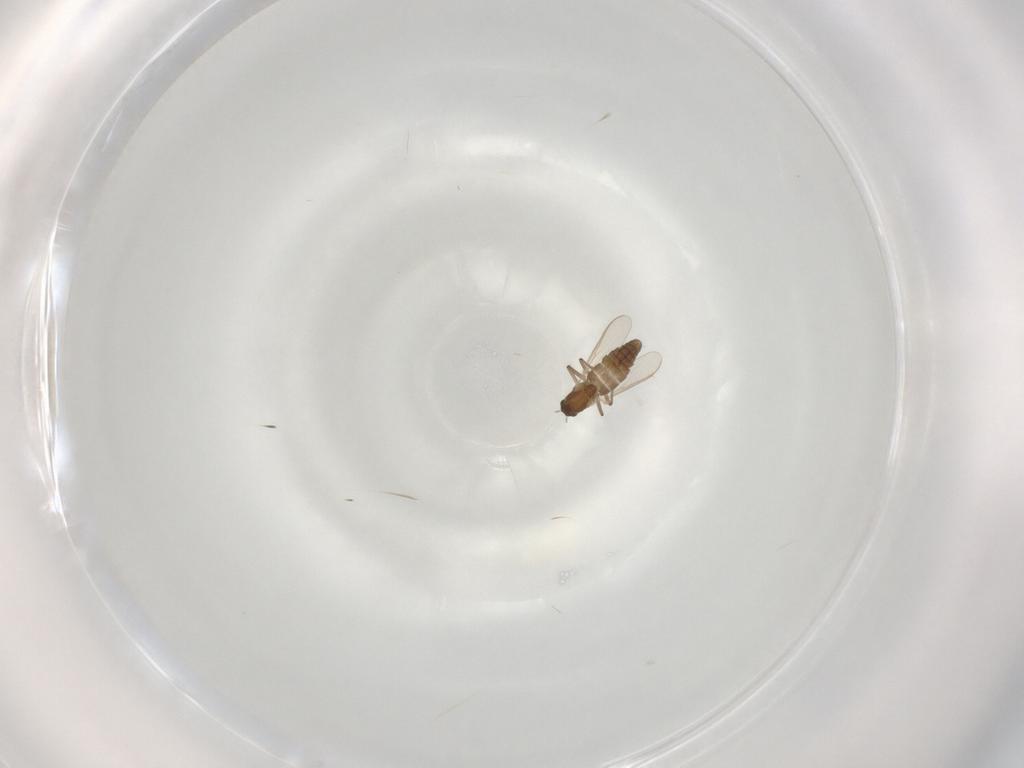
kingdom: Animalia
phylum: Arthropoda
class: Insecta
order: Diptera
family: Chironomidae
